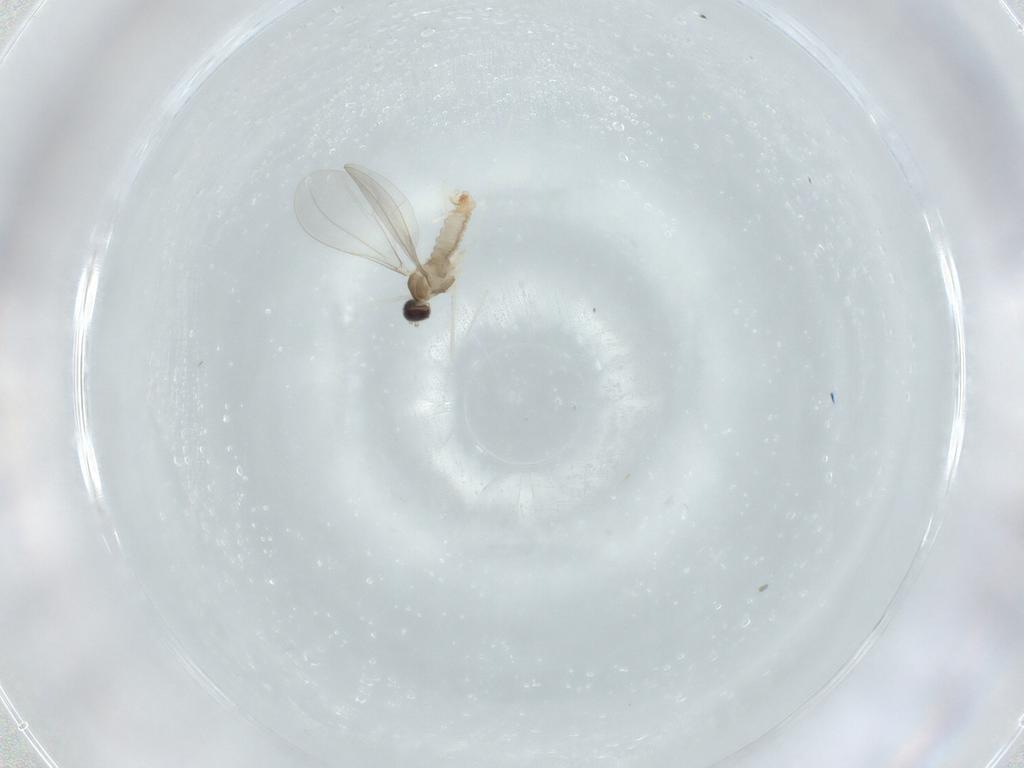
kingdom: Animalia
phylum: Arthropoda
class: Insecta
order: Diptera
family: Cecidomyiidae
